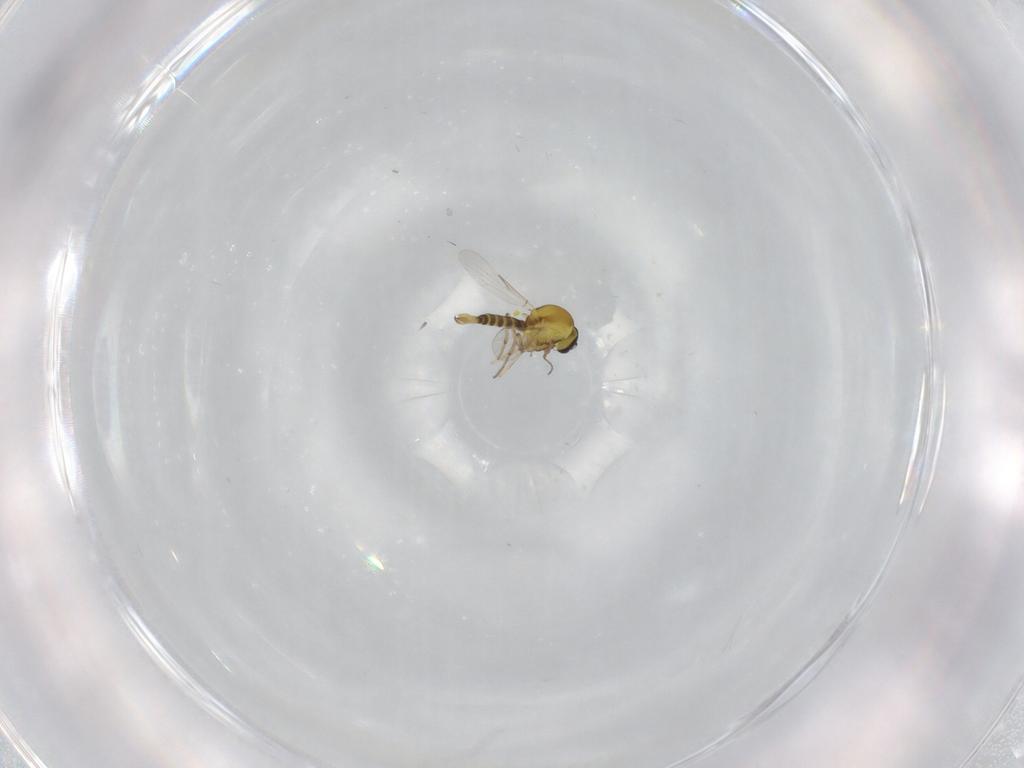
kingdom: Animalia
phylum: Arthropoda
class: Insecta
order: Diptera
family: Ceratopogonidae
